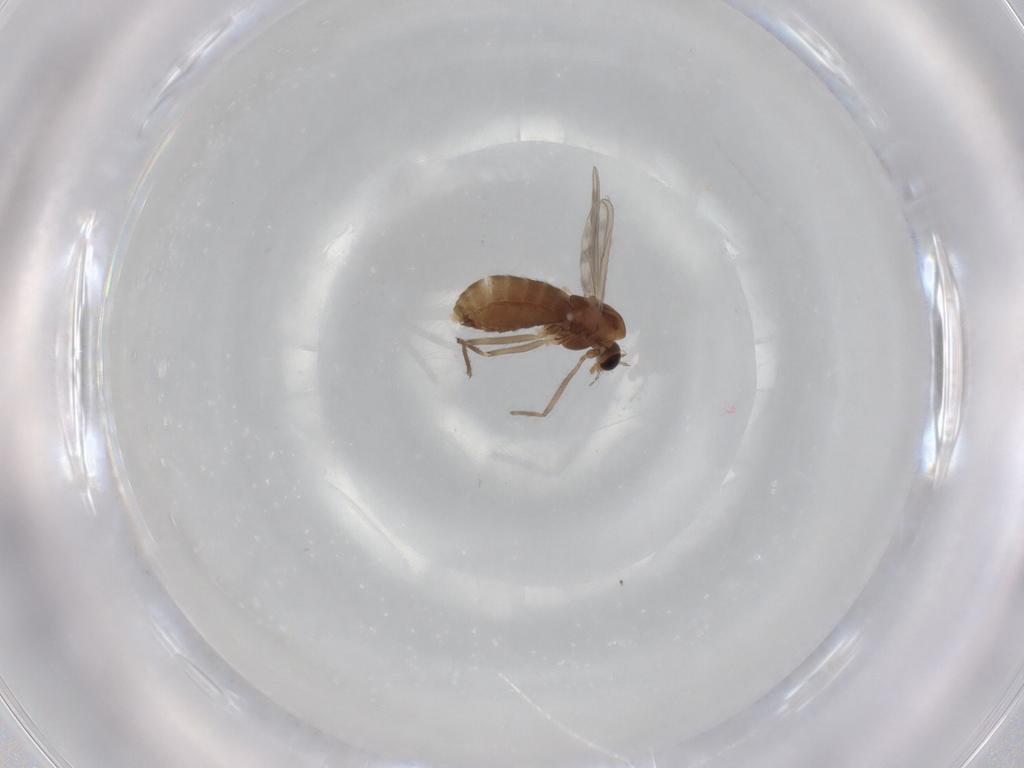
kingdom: Animalia
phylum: Arthropoda
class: Insecta
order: Diptera
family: Chironomidae
